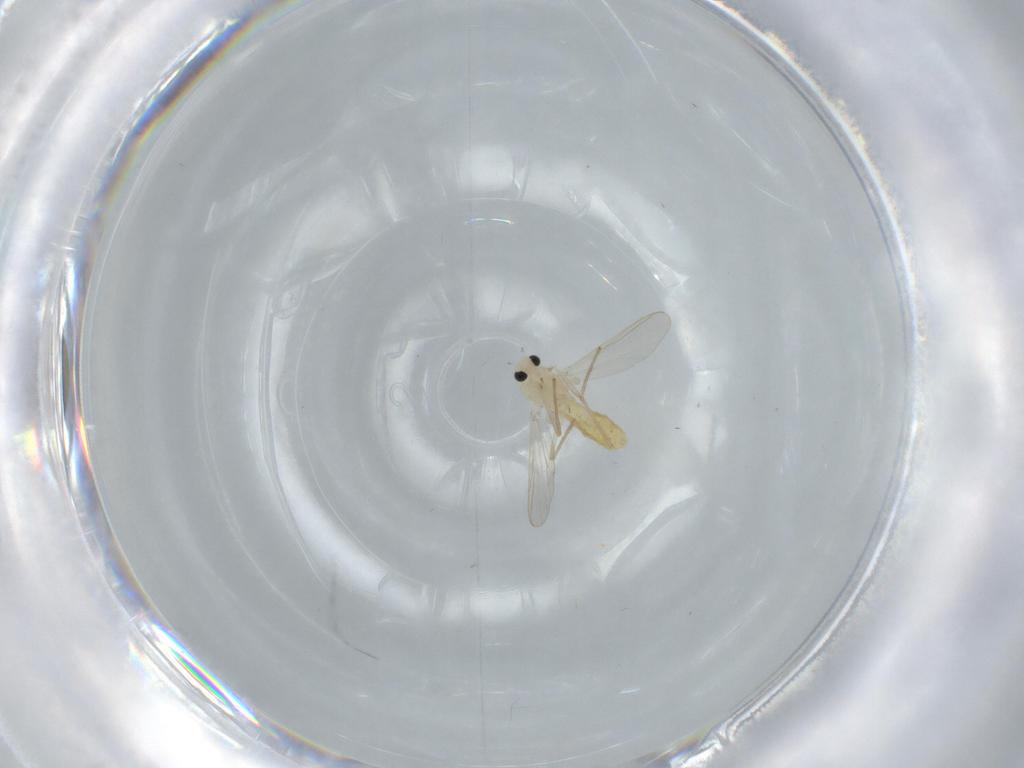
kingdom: Animalia
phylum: Arthropoda
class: Insecta
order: Diptera
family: Chironomidae
